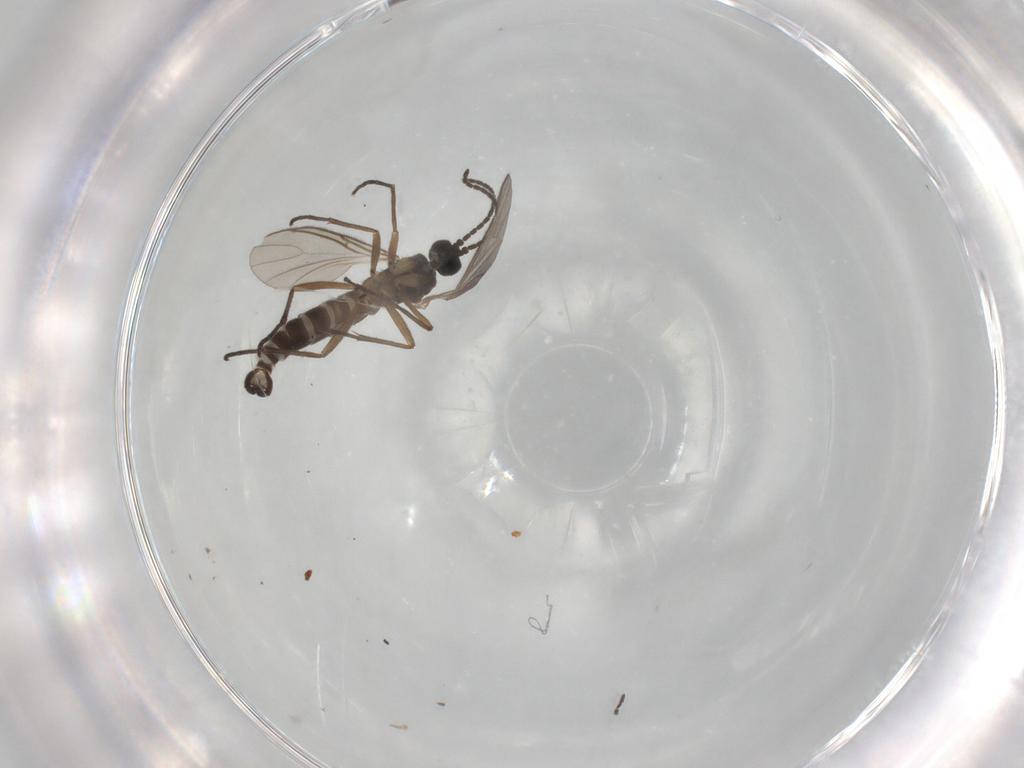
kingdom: Animalia
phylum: Arthropoda
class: Insecta
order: Diptera
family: Sciaridae
